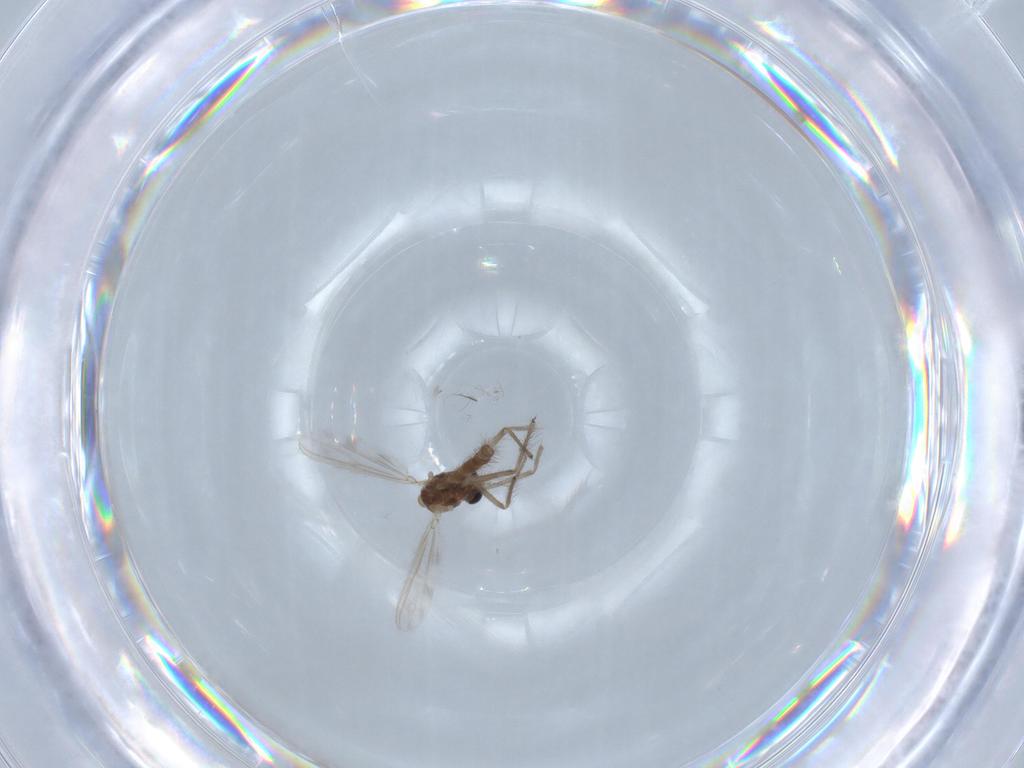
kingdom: Animalia
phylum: Arthropoda
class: Insecta
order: Diptera
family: Chironomidae
